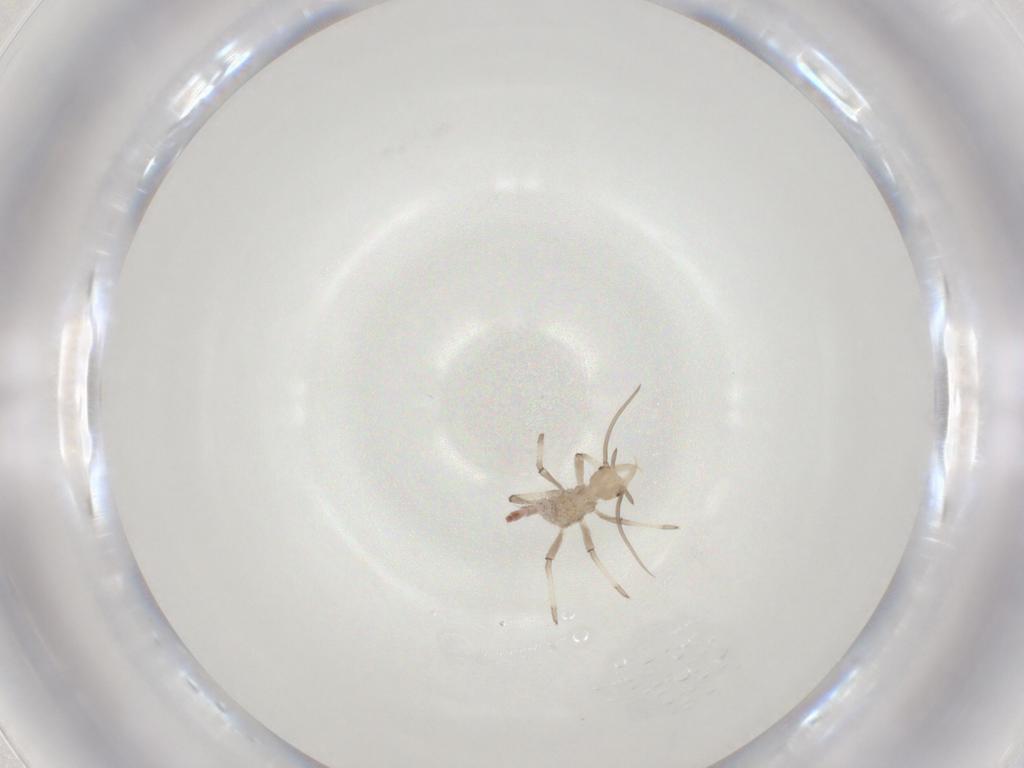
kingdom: Animalia
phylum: Arthropoda
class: Insecta
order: Neuroptera
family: Hemerobiidae
